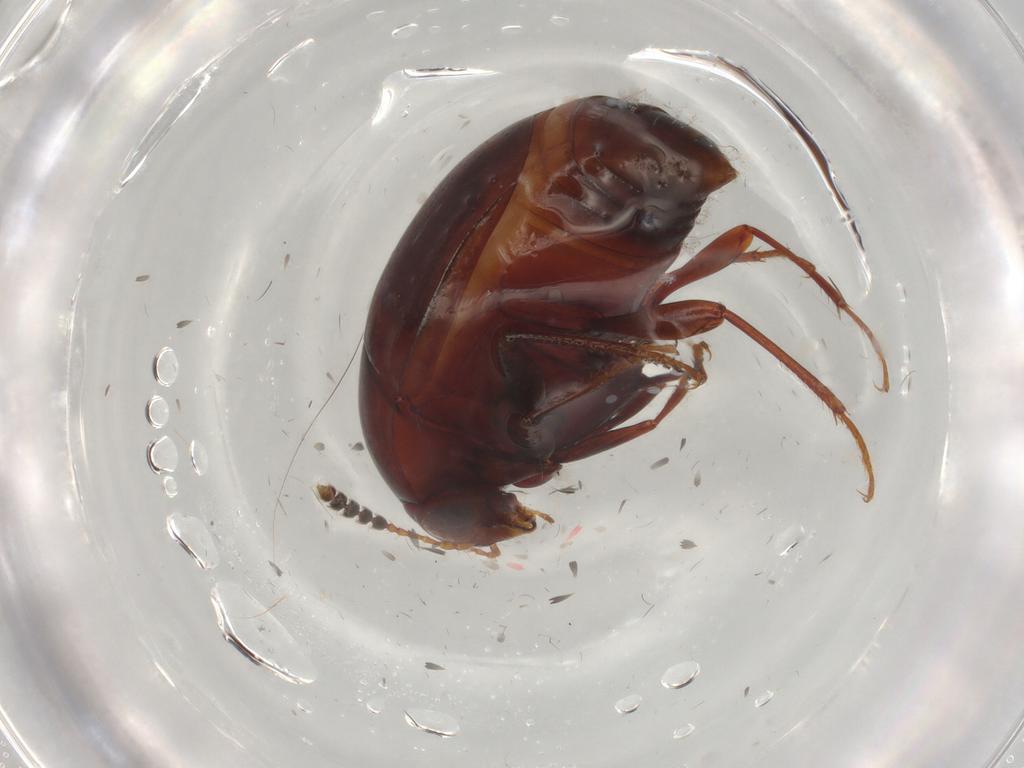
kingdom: Animalia
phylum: Arthropoda
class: Insecta
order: Coleoptera
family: Staphylinidae
